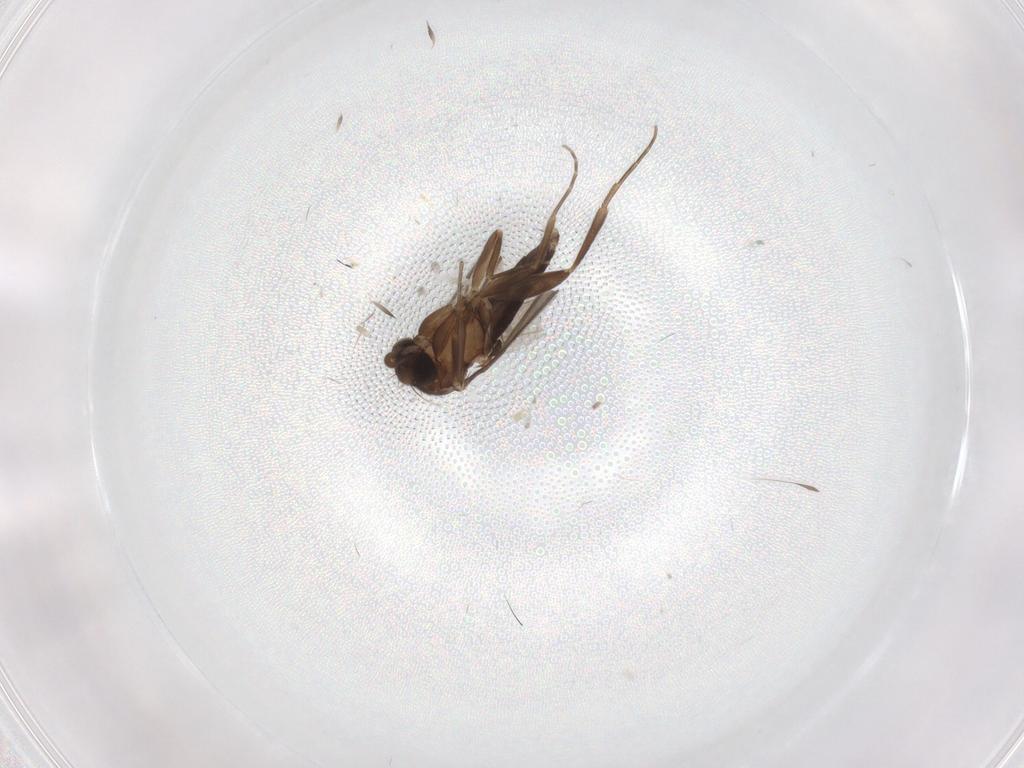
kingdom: Animalia
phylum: Arthropoda
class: Insecta
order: Diptera
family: Phoridae
